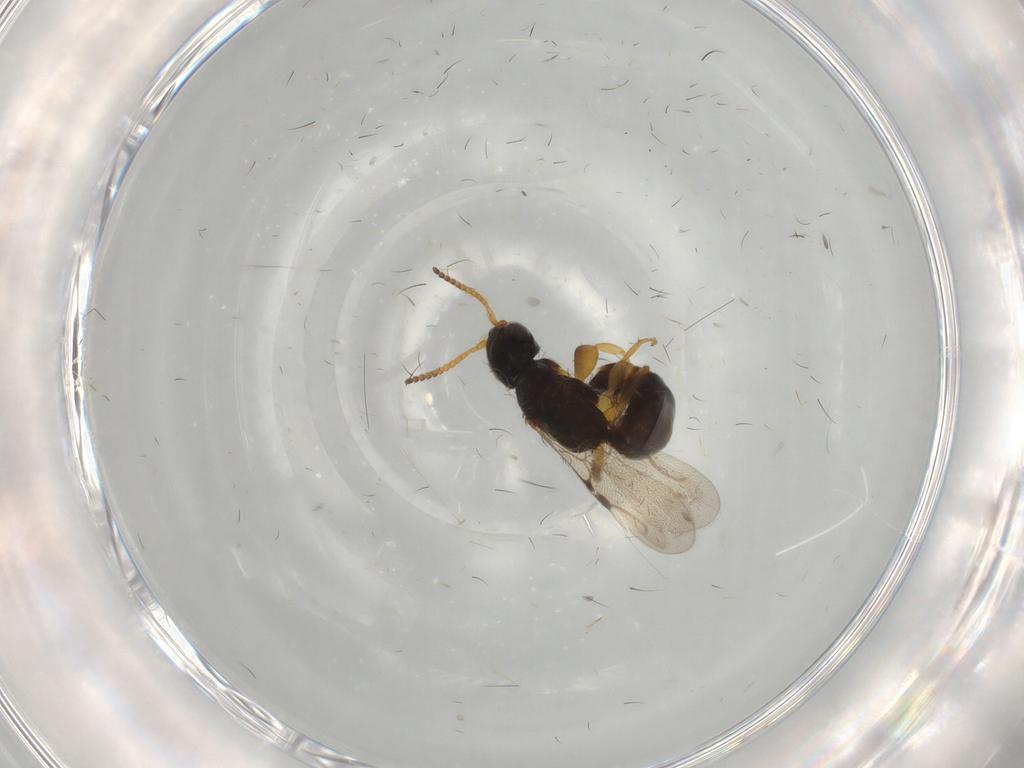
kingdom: Animalia
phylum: Arthropoda
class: Insecta
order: Hymenoptera
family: Bethylidae
